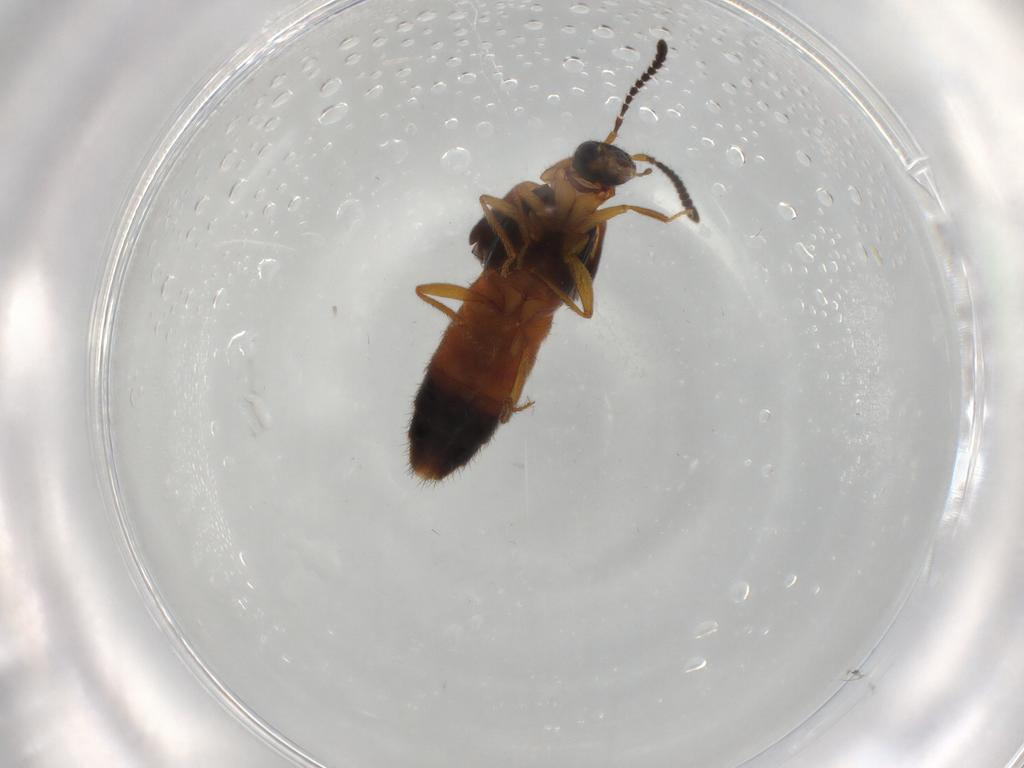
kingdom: Animalia
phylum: Arthropoda
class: Insecta
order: Coleoptera
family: Staphylinidae
